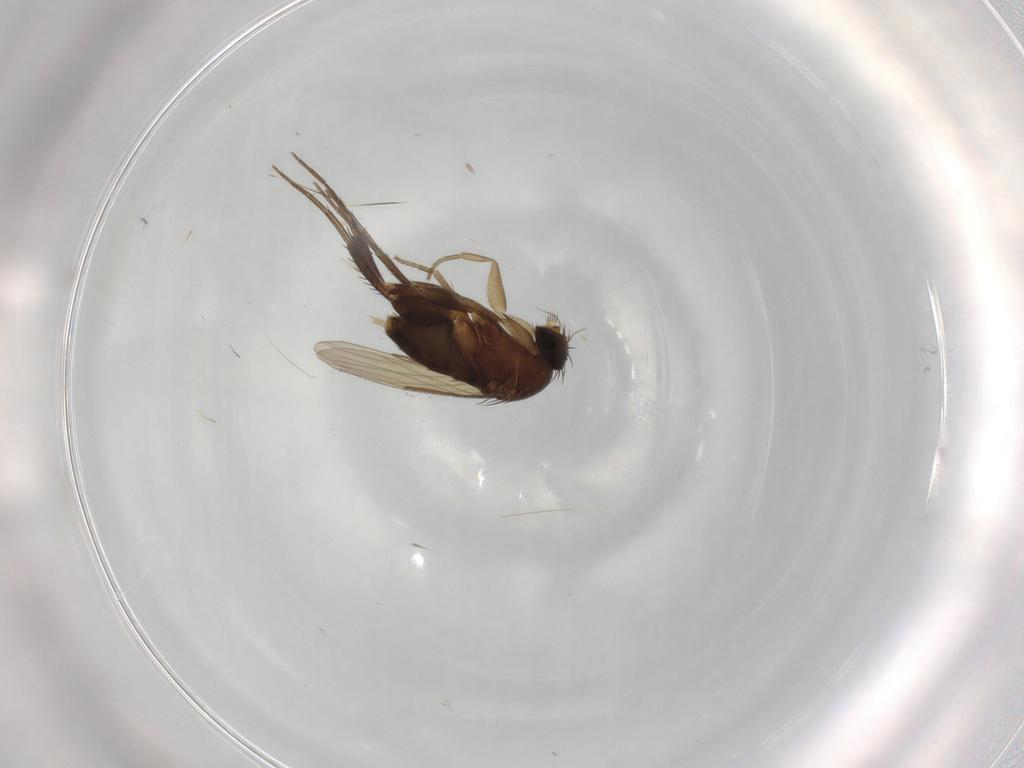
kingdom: Animalia
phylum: Arthropoda
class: Insecta
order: Diptera
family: Phoridae
